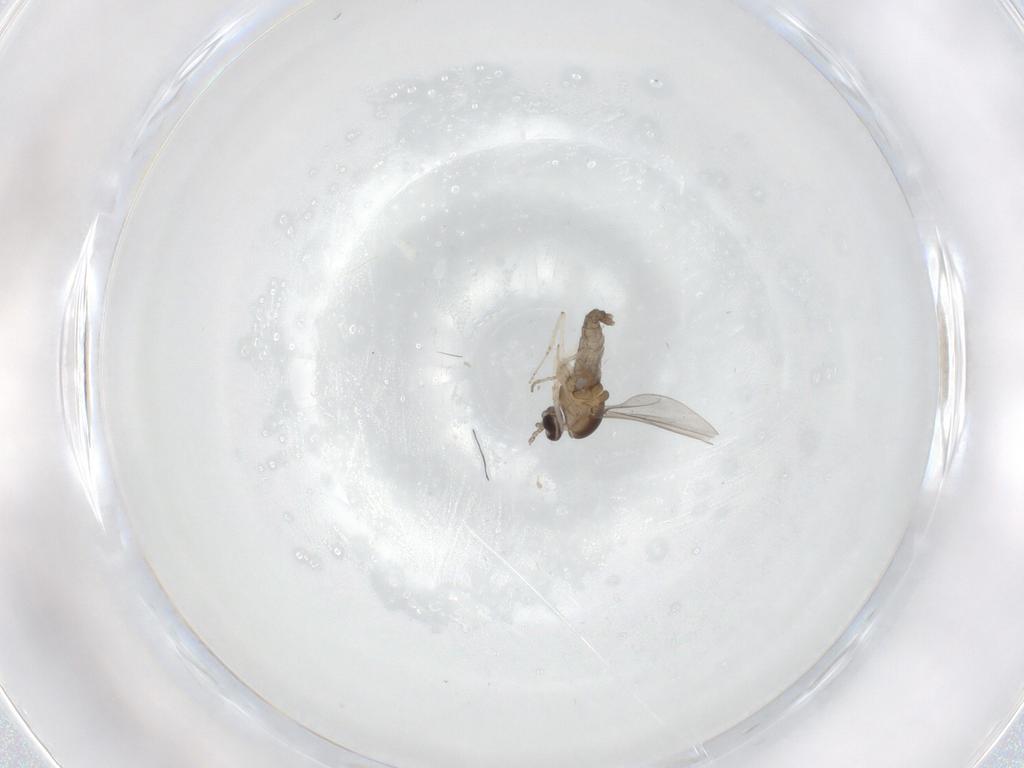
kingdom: Animalia
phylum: Arthropoda
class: Insecta
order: Diptera
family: Cecidomyiidae
